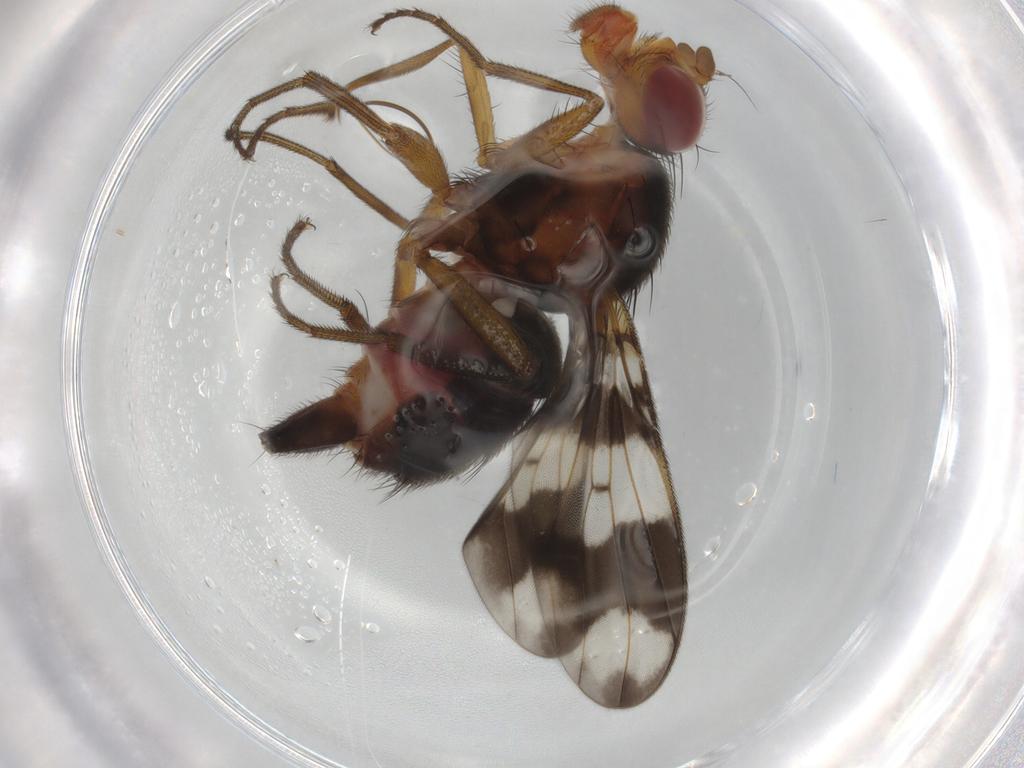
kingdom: Animalia
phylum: Arthropoda
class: Insecta
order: Diptera
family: Richardiidae
